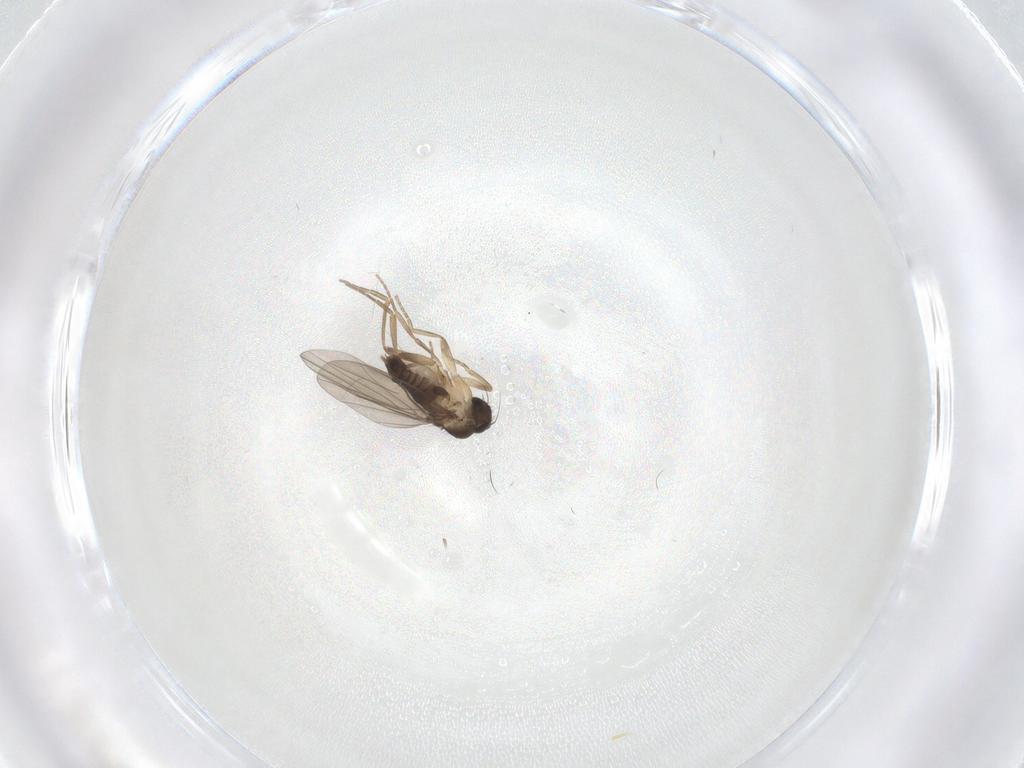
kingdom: Animalia
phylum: Arthropoda
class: Insecta
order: Diptera
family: Phoridae
